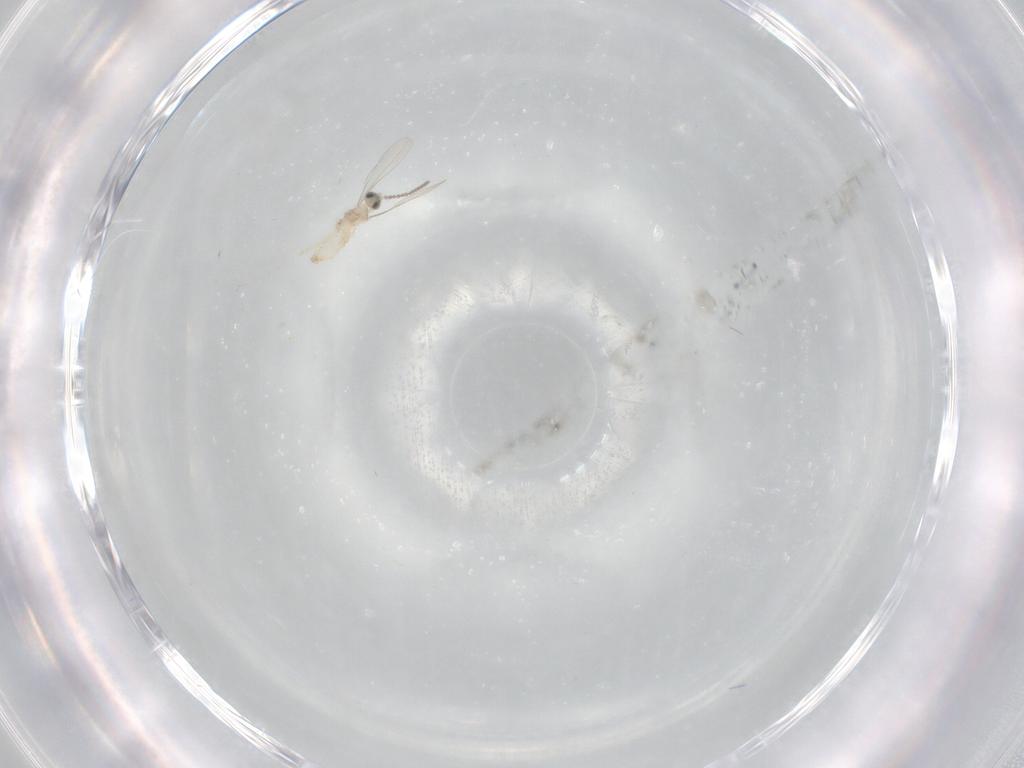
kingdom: Animalia
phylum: Arthropoda
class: Insecta
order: Diptera
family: Cecidomyiidae
